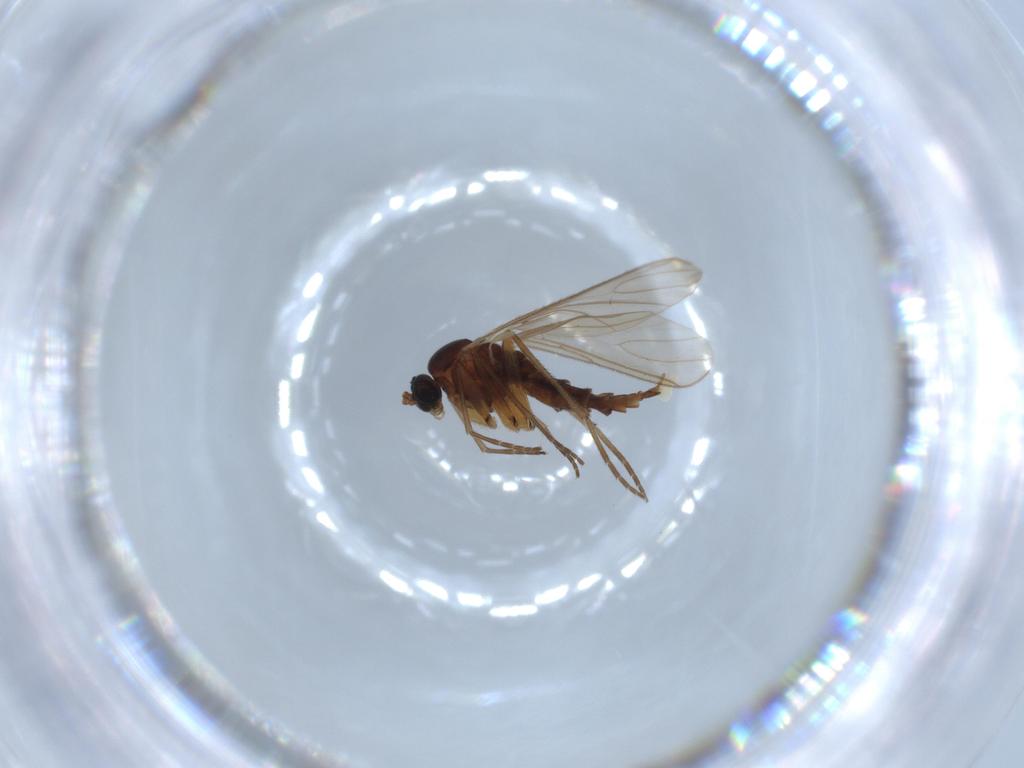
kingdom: Animalia
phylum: Arthropoda
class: Insecta
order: Diptera
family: Sciaridae
